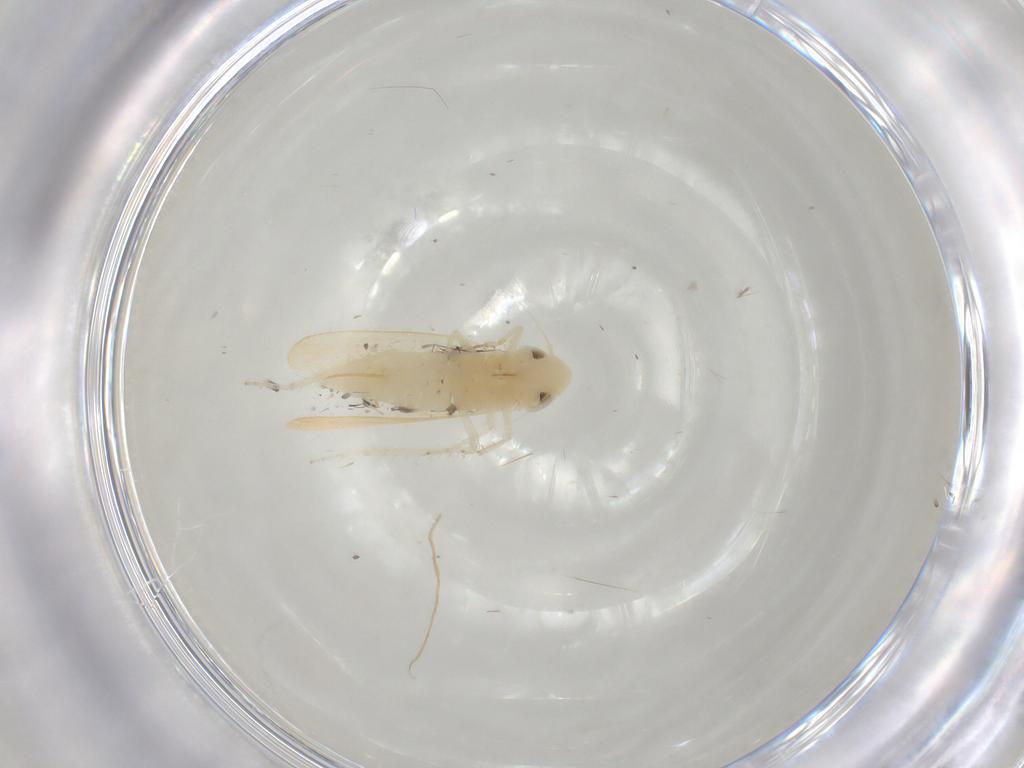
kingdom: Animalia
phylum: Arthropoda
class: Insecta
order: Hemiptera
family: Cicadellidae
